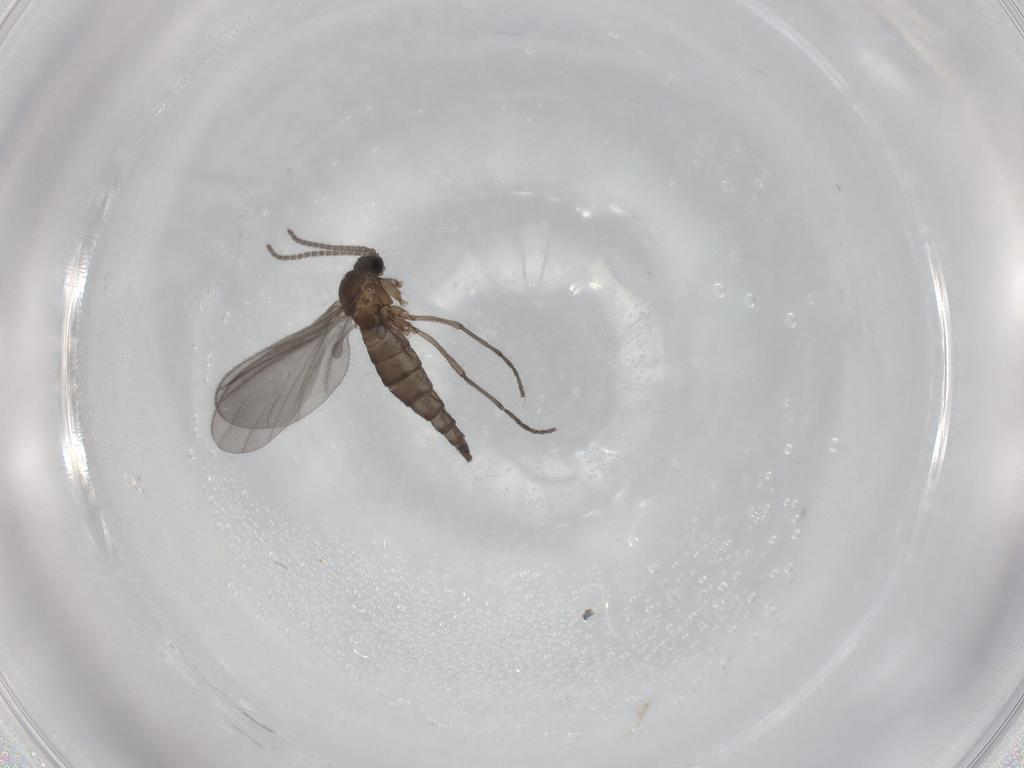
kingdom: Animalia
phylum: Arthropoda
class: Insecta
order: Diptera
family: Sciaridae
